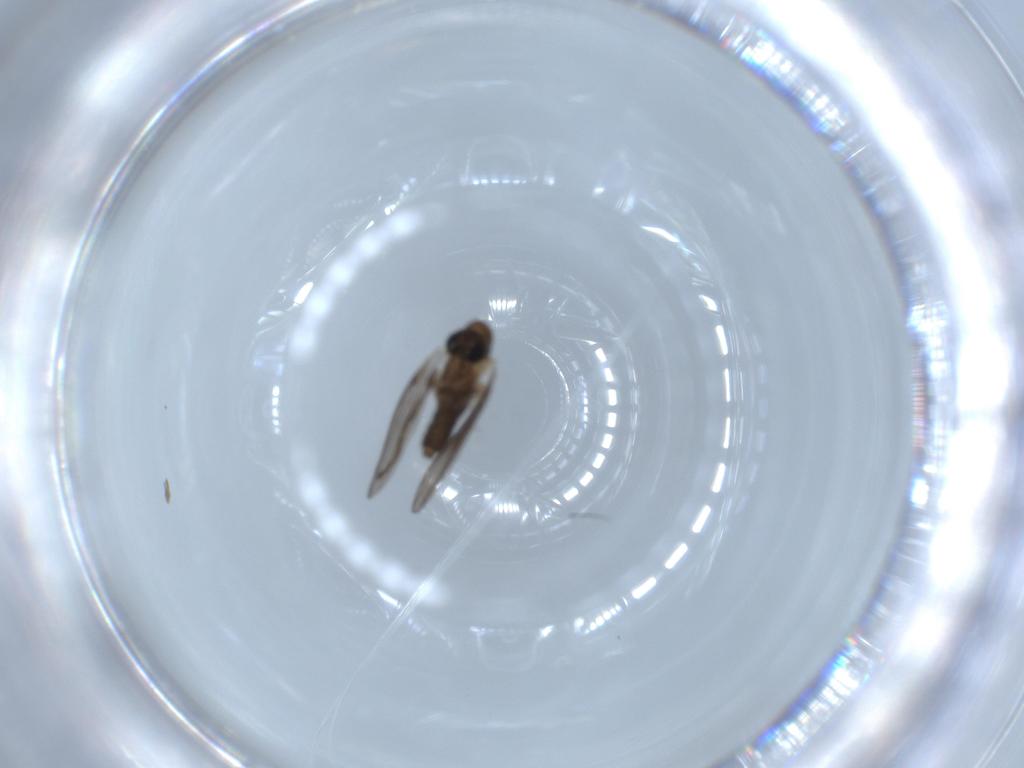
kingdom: Animalia
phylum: Arthropoda
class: Insecta
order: Diptera
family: Psychodidae
